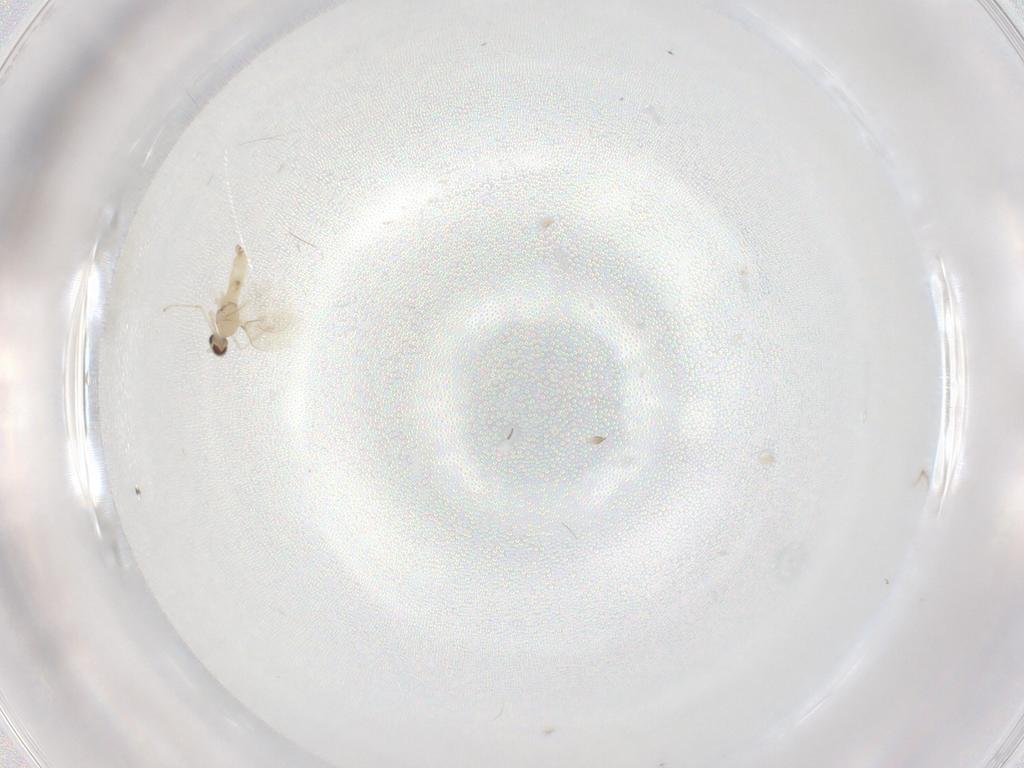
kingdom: Animalia
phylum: Arthropoda
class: Insecta
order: Diptera
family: Cecidomyiidae
